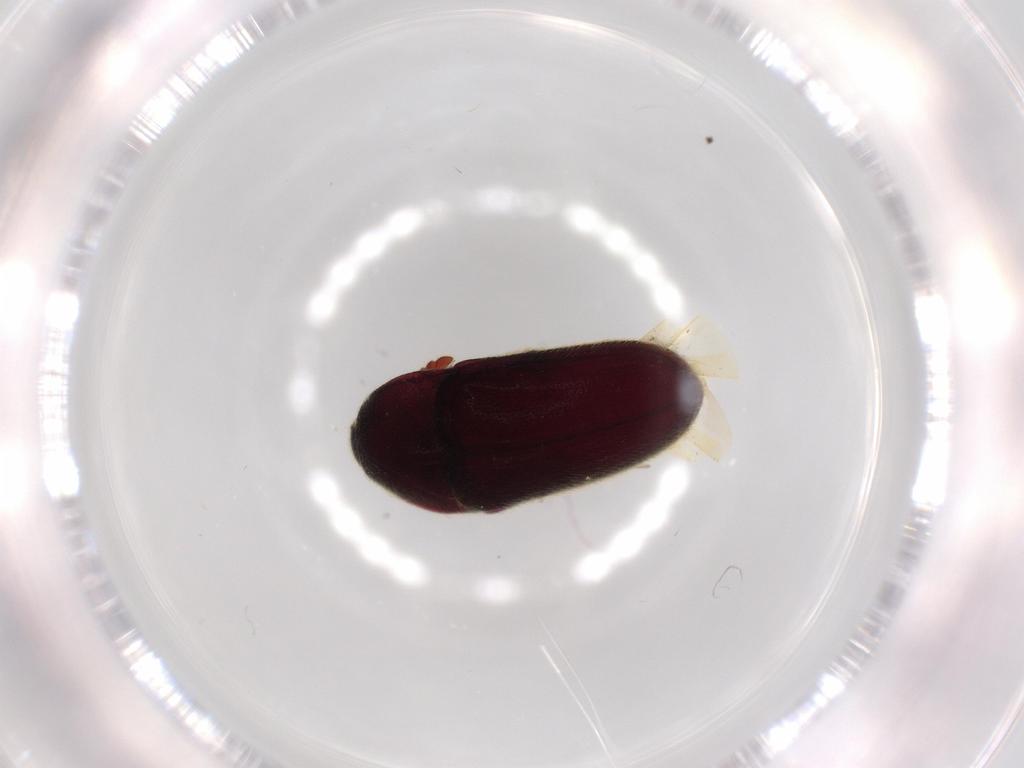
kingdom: Animalia
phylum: Arthropoda
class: Insecta
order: Coleoptera
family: Throscidae
